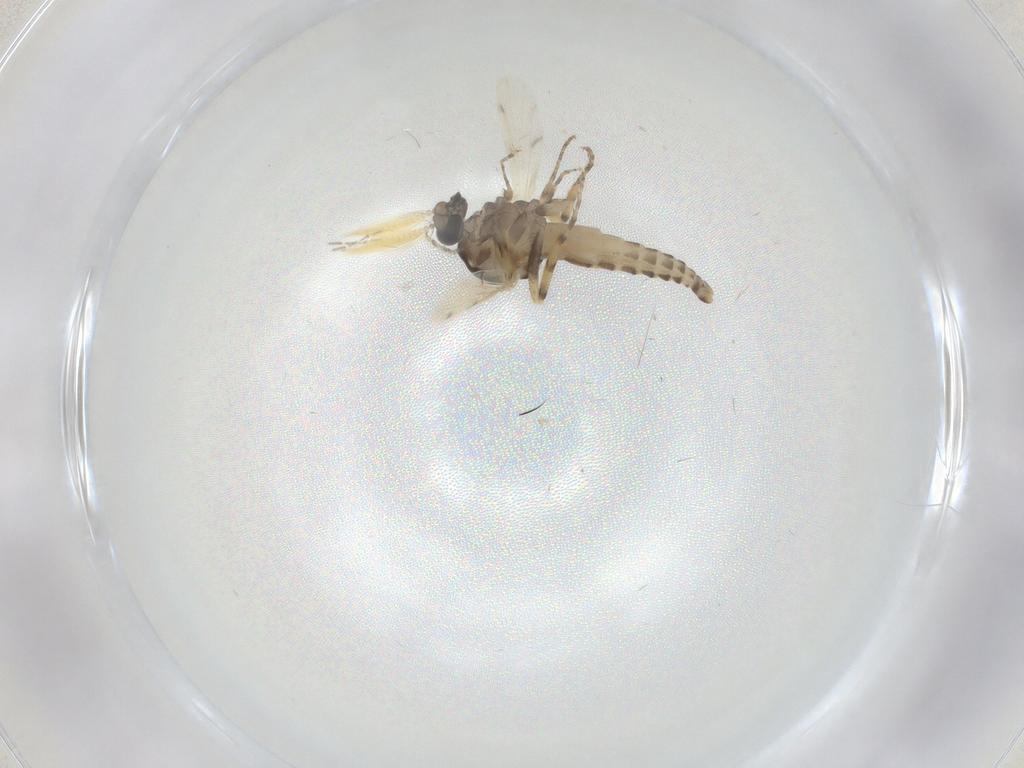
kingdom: Animalia
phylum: Arthropoda
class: Insecta
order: Diptera
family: Ceratopogonidae
